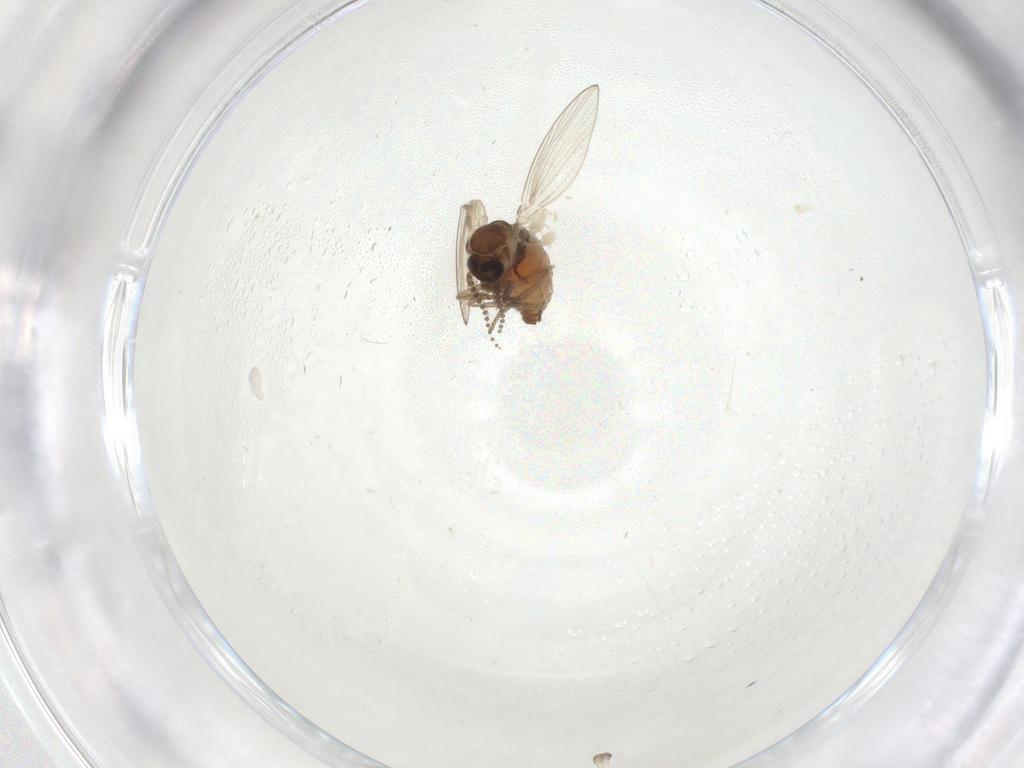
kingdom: Animalia
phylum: Arthropoda
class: Insecta
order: Diptera
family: Psychodidae
